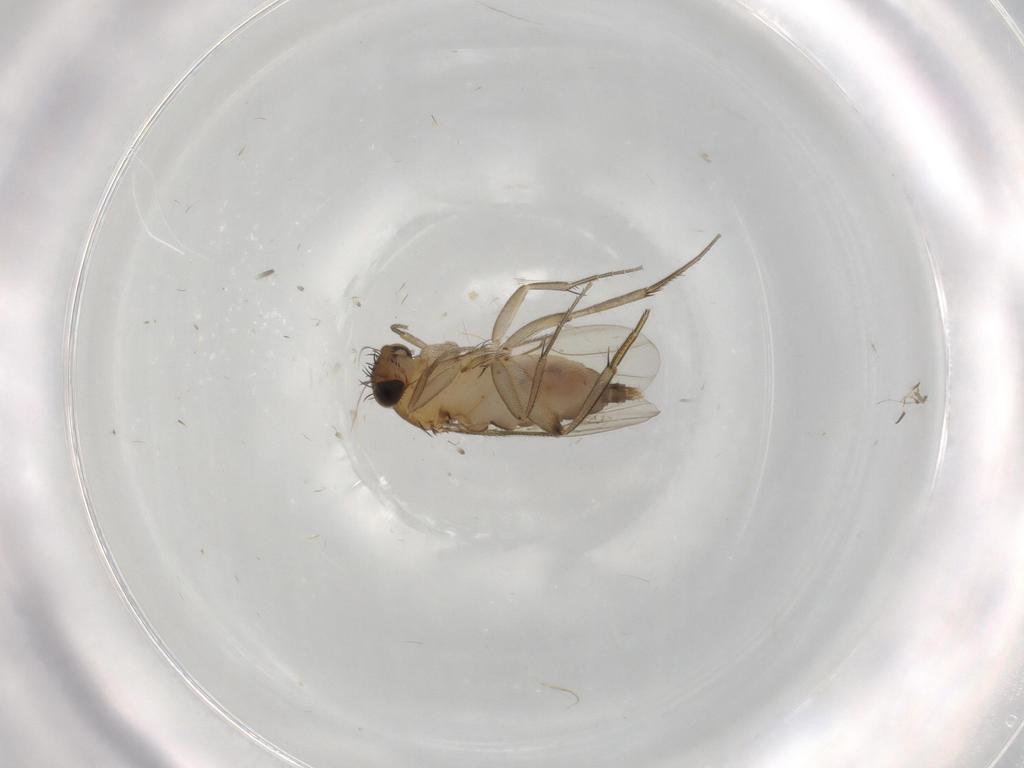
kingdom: Animalia
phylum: Arthropoda
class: Insecta
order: Diptera
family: Phoridae
